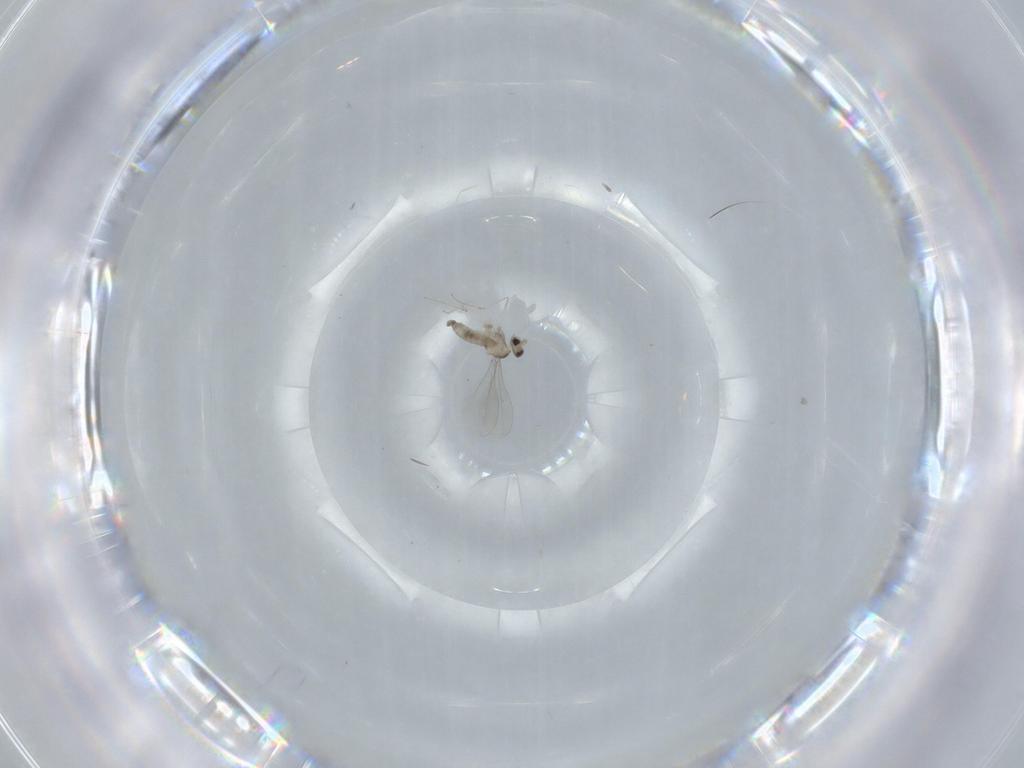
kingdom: Animalia
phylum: Arthropoda
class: Insecta
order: Diptera
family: Cecidomyiidae
